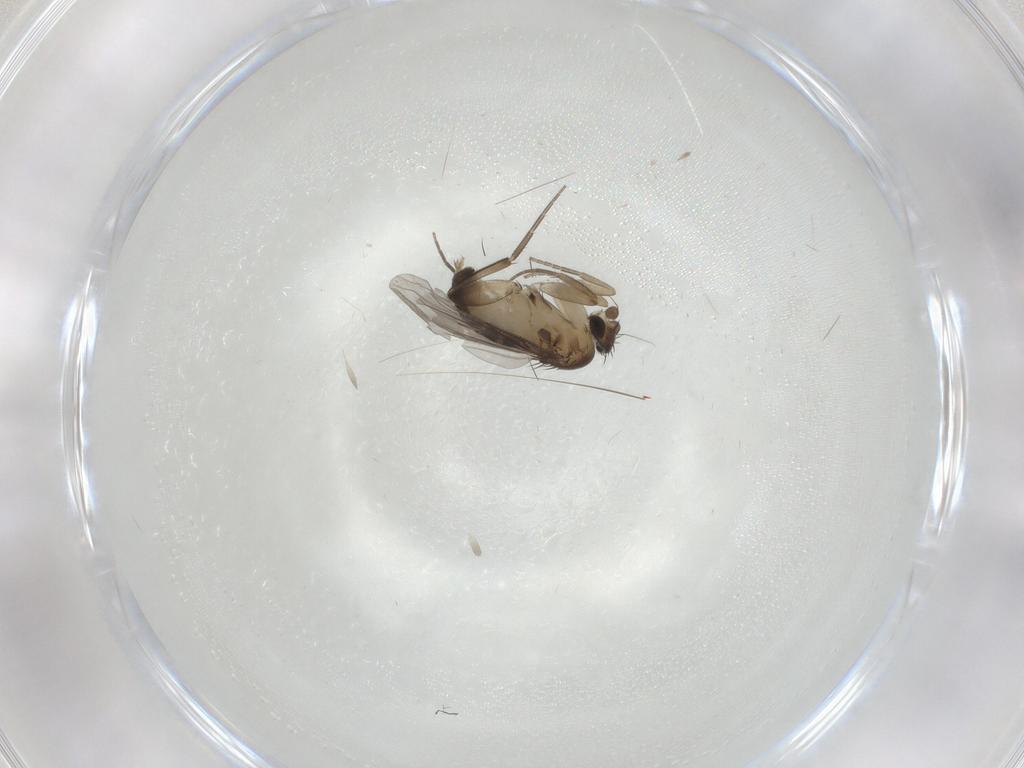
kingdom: Animalia
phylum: Arthropoda
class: Insecta
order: Diptera
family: Phoridae
